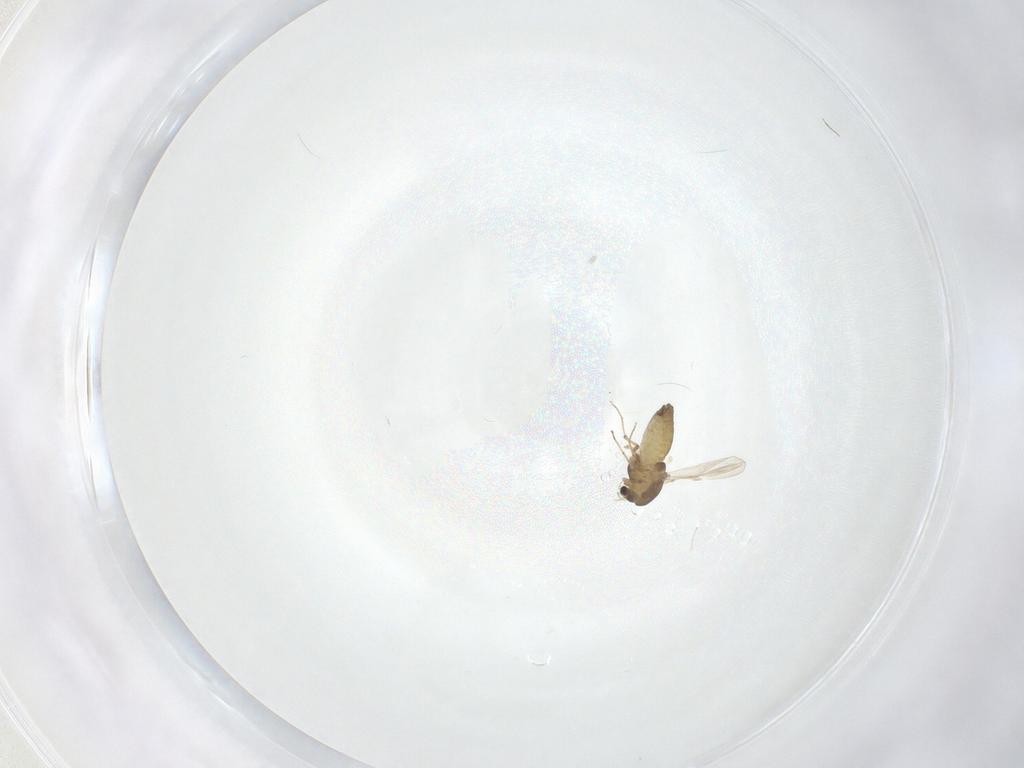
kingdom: Animalia
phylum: Arthropoda
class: Insecta
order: Diptera
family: Chironomidae
